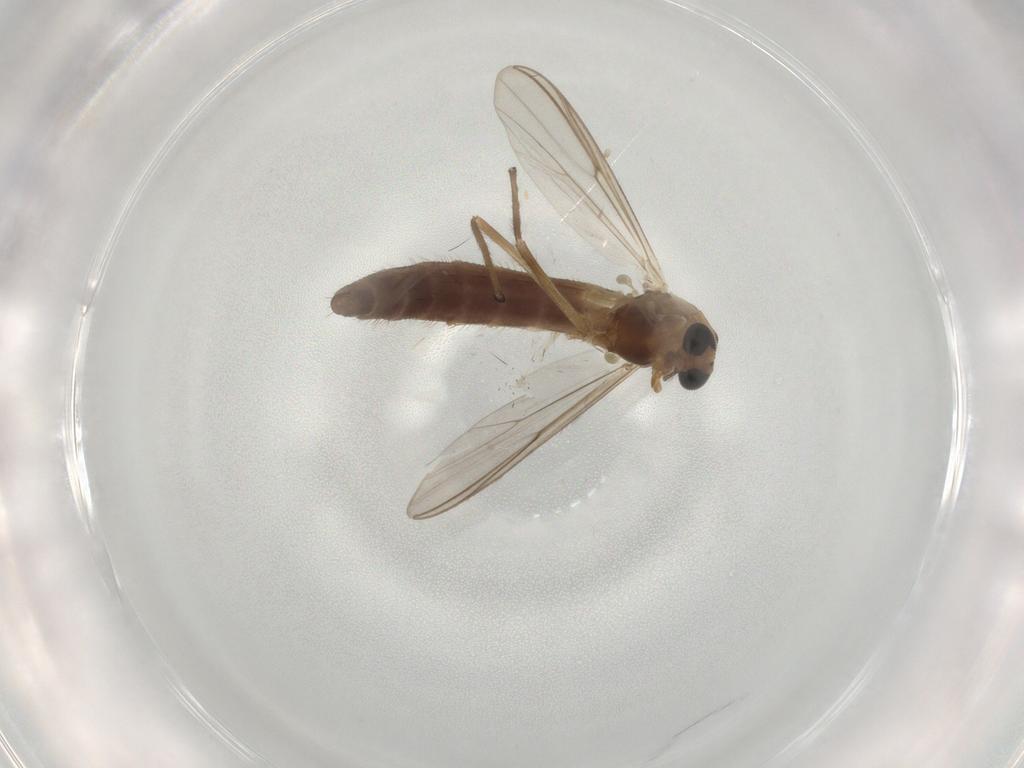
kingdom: Animalia
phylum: Arthropoda
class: Insecta
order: Diptera
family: Chironomidae
